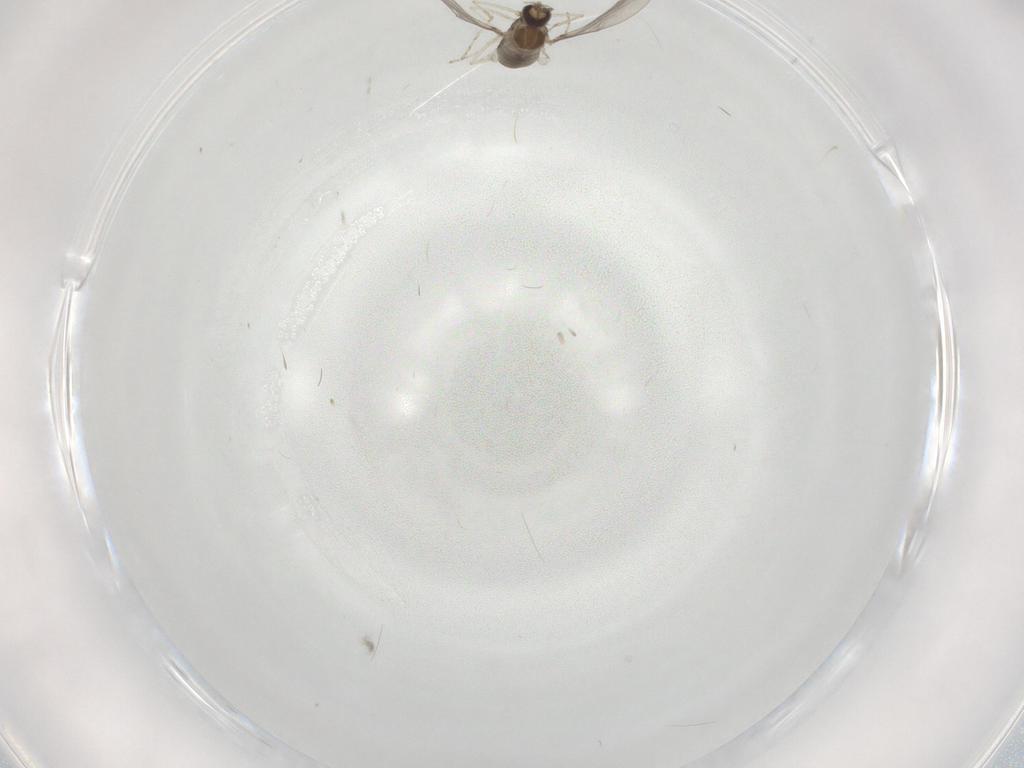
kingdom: Animalia
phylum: Arthropoda
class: Insecta
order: Diptera
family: Cecidomyiidae
